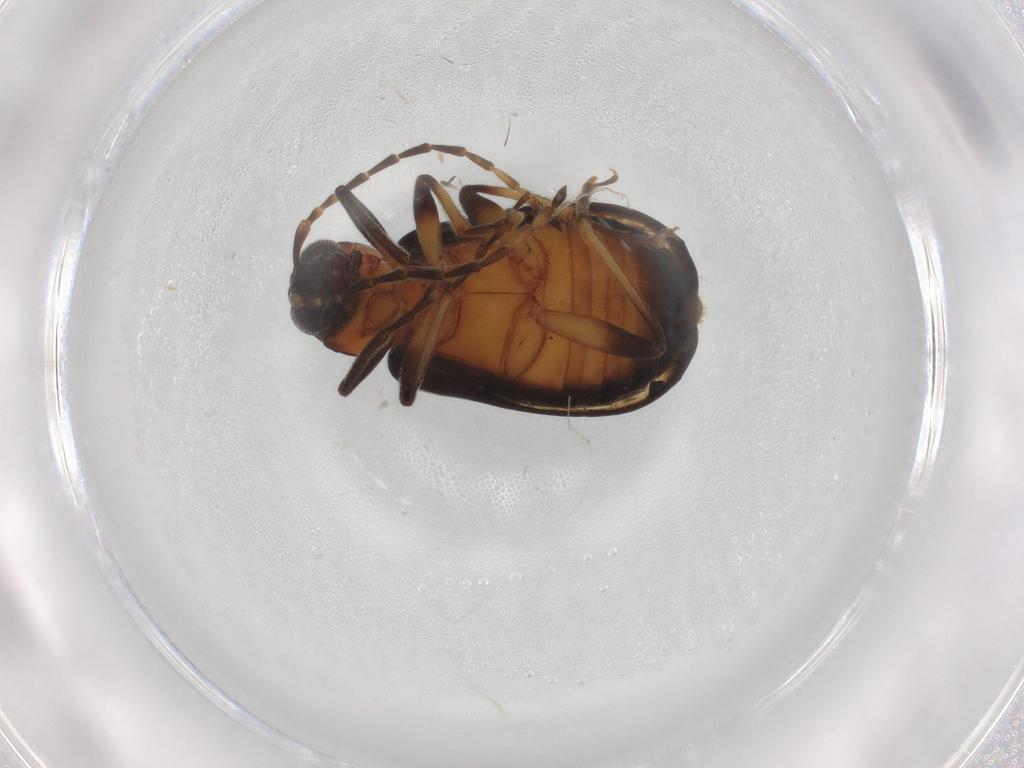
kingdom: Animalia
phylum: Arthropoda
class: Insecta
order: Coleoptera
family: Chrysomelidae
